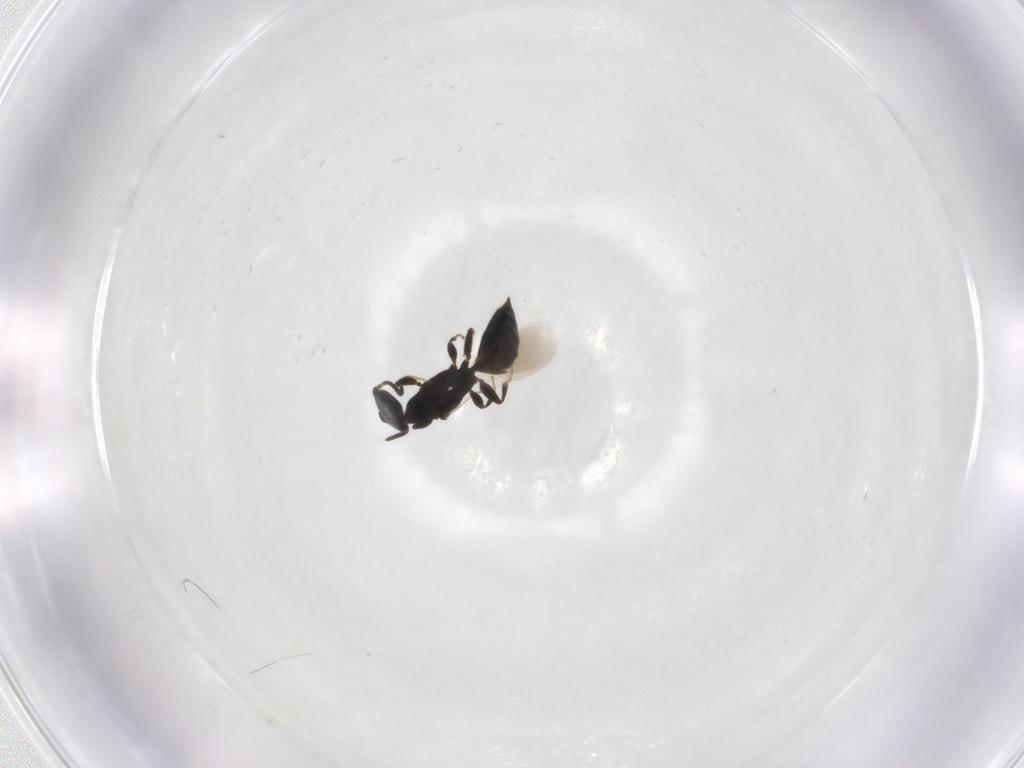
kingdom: Animalia
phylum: Arthropoda
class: Insecta
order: Hymenoptera
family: Bethylidae
